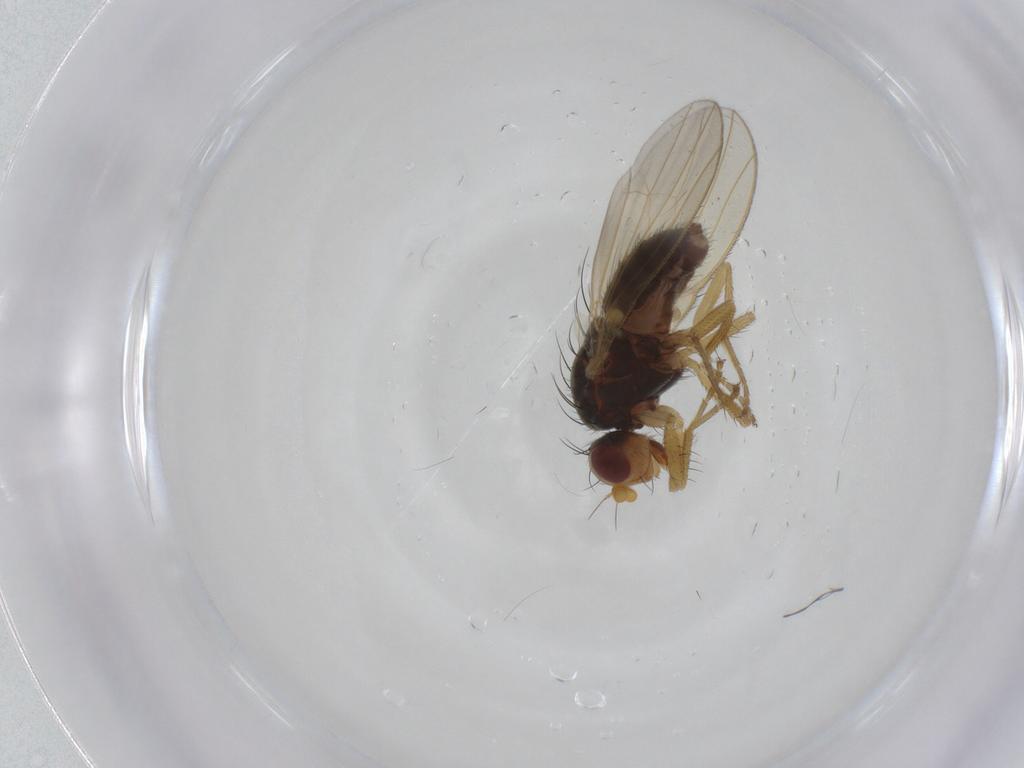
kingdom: Animalia
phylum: Arthropoda
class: Insecta
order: Diptera
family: Heleomyzidae
